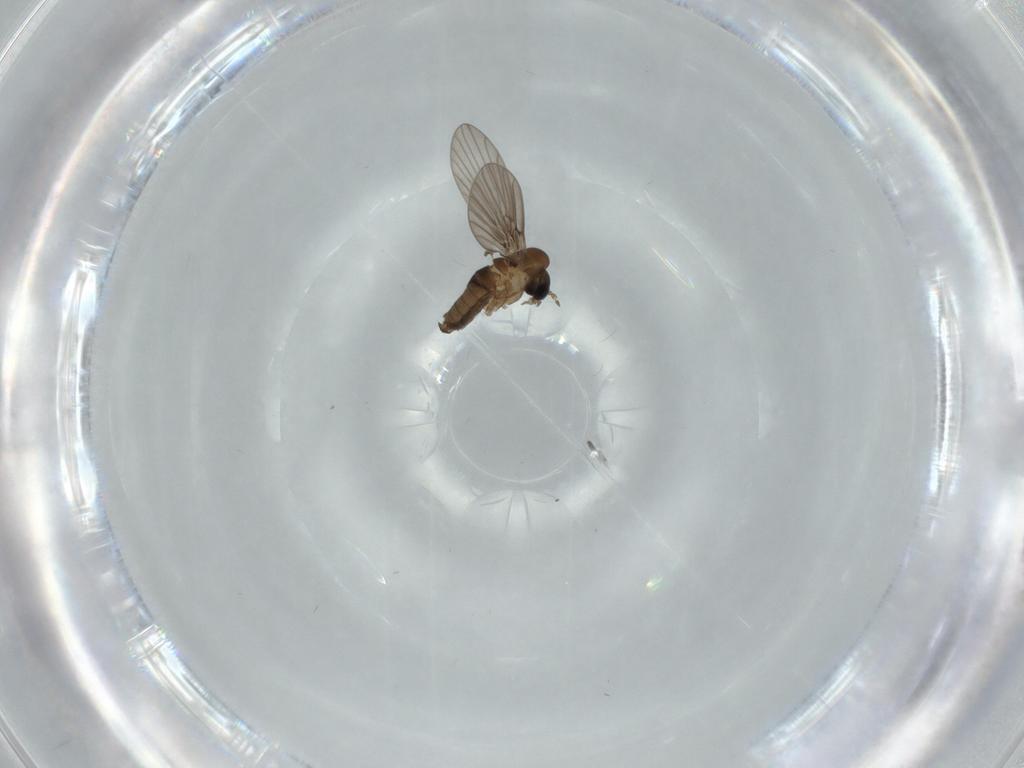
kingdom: Animalia
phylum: Arthropoda
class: Insecta
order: Diptera
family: Psychodidae
